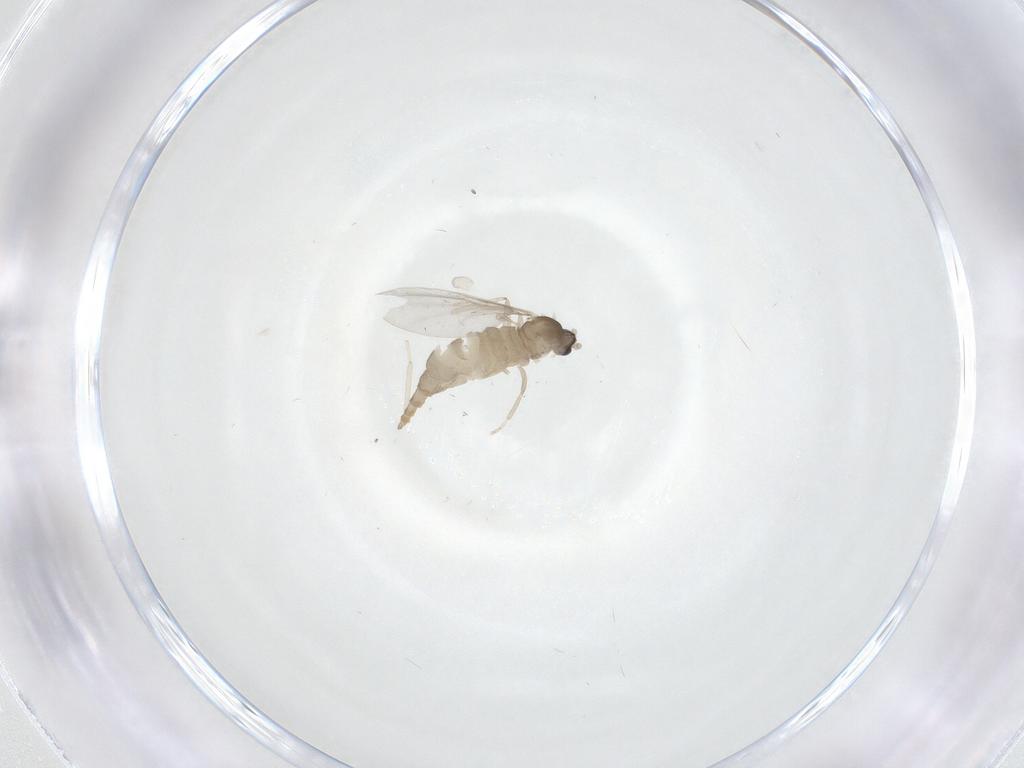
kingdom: Animalia
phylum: Arthropoda
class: Insecta
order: Diptera
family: Cecidomyiidae
